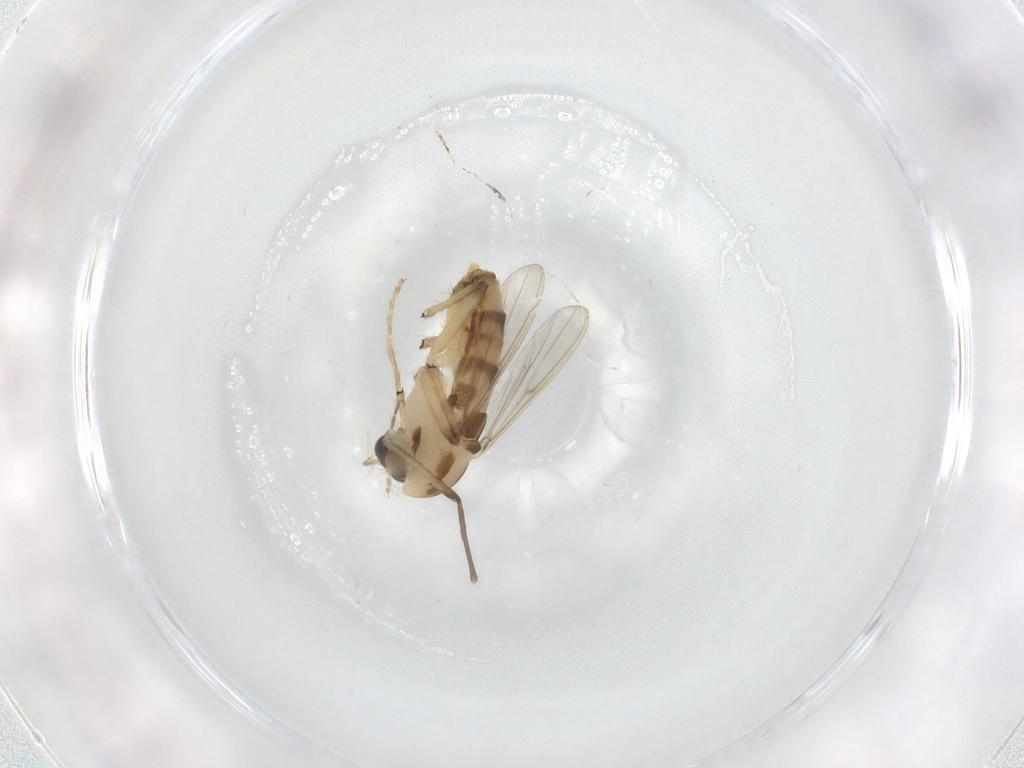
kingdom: Animalia
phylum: Arthropoda
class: Insecta
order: Diptera
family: Chironomidae
